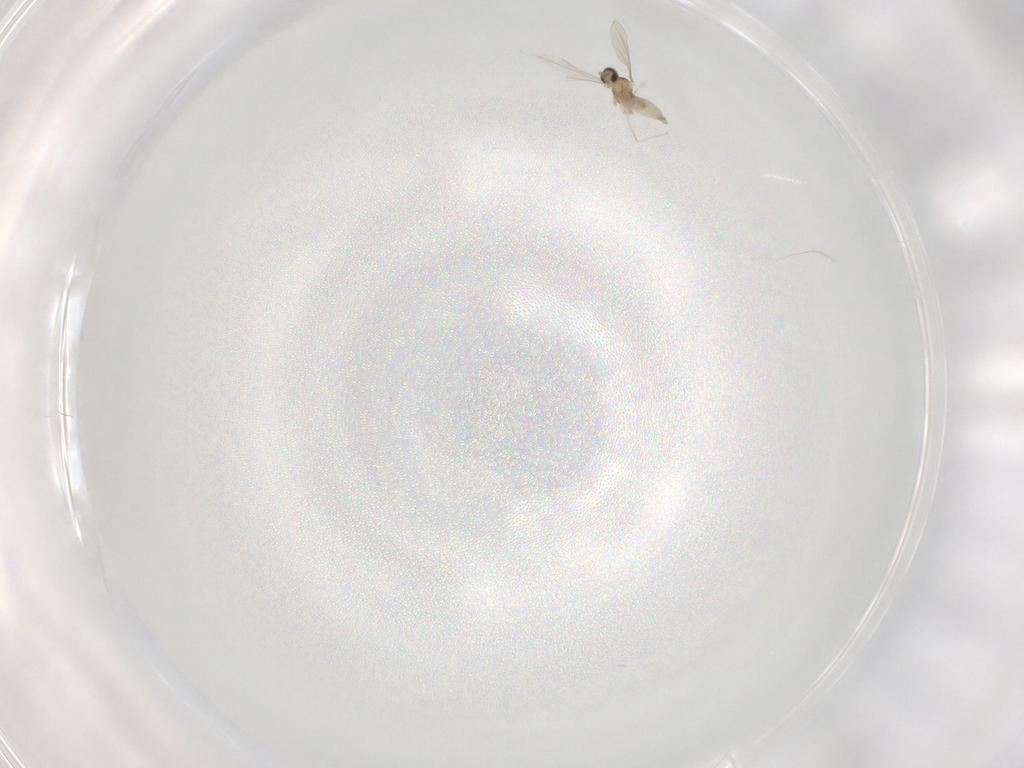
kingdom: Animalia
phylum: Arthropoda
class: Insecta
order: Diptera
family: Cecidomyiidae
